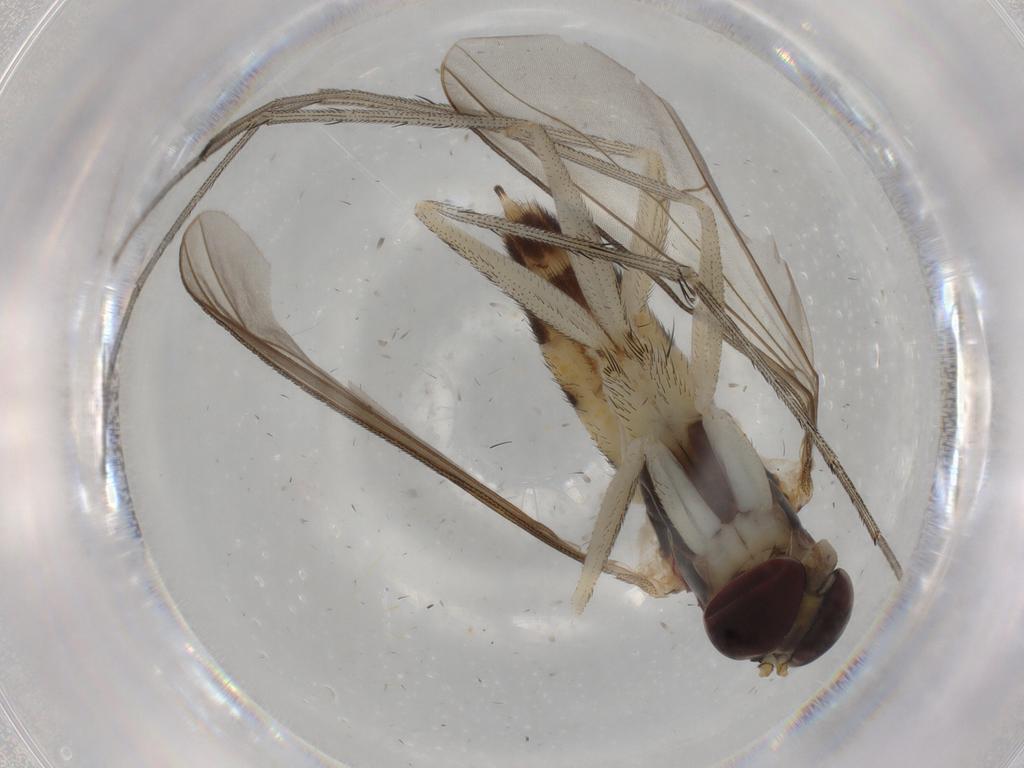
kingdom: Animalia
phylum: Arthropoda
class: Insecta
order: Diptera
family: Dolichopodidae
